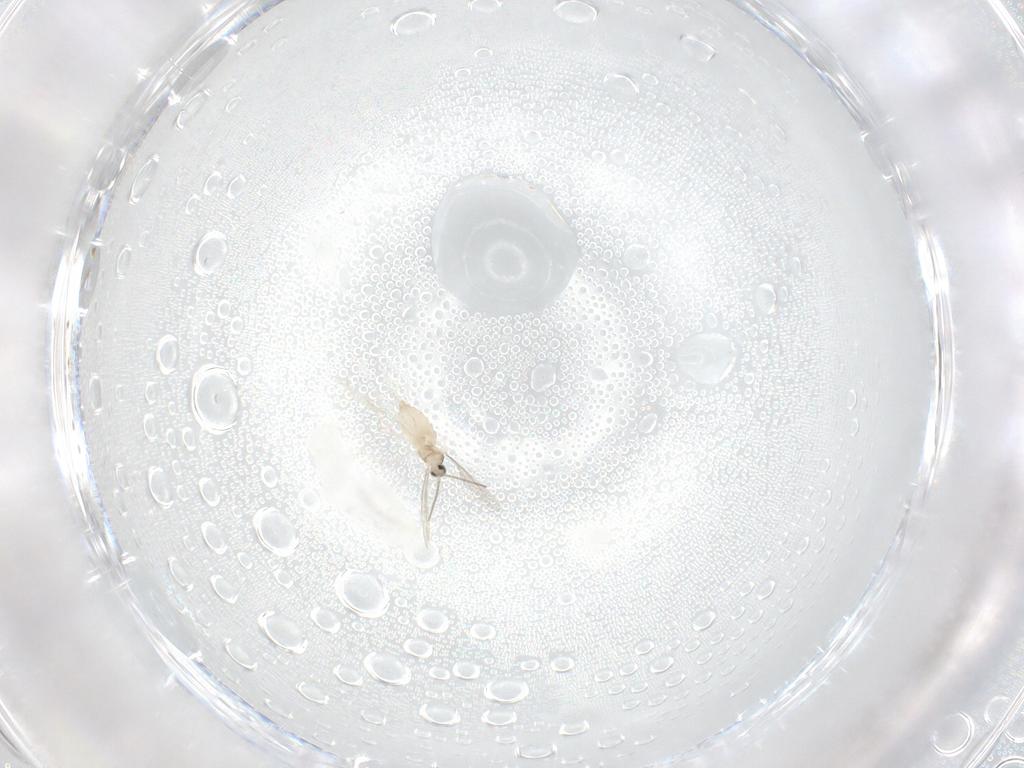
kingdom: Animalia
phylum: Arthropoda
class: Insecta
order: Diptera
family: Cecidomyiidae
